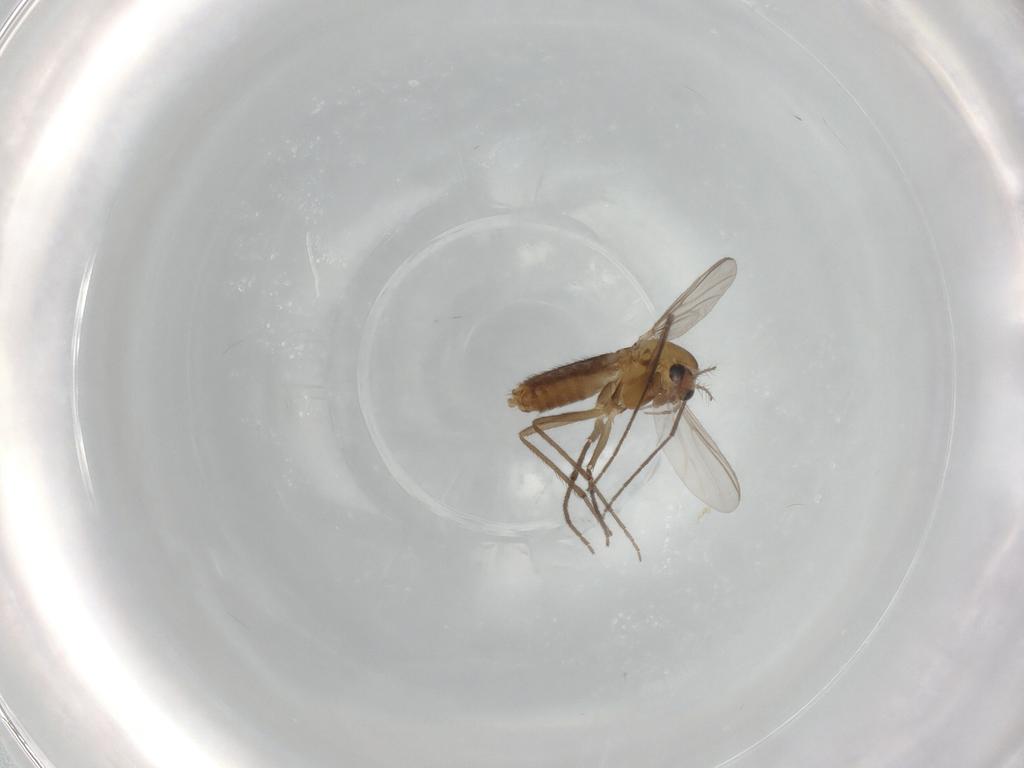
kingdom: Animalia
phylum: Arthropoda
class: Insecta
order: Diptera
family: Chironomidae
